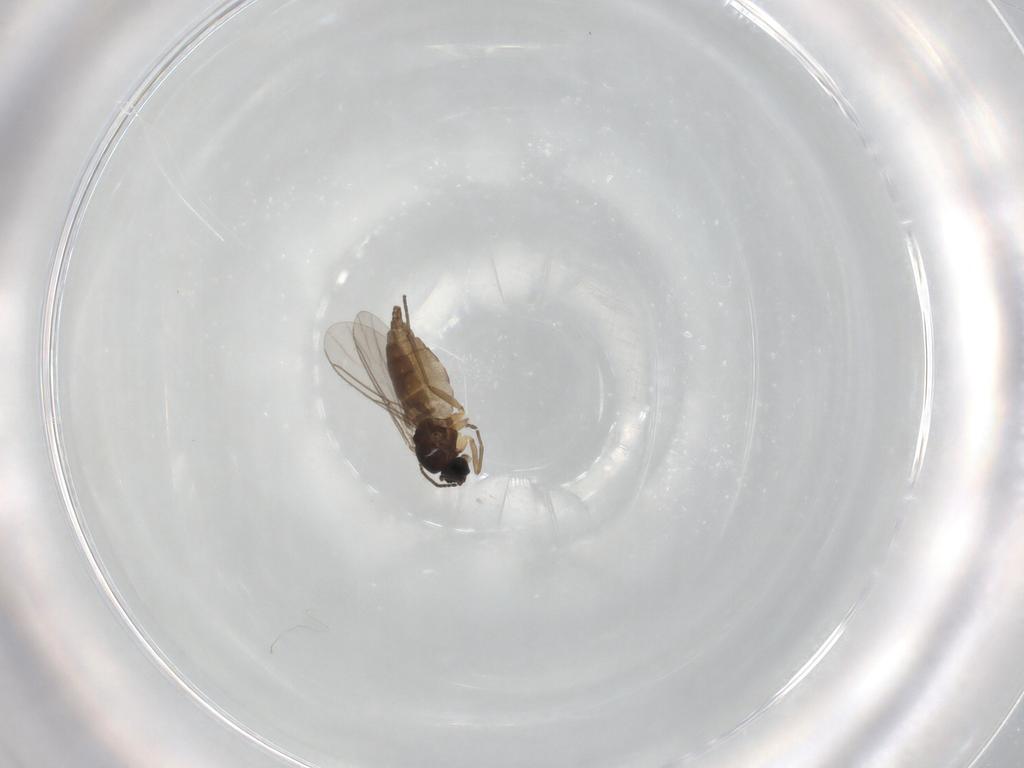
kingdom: Animalia
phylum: Arthropoda
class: Insecta
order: Diptera
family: Sciaridae
